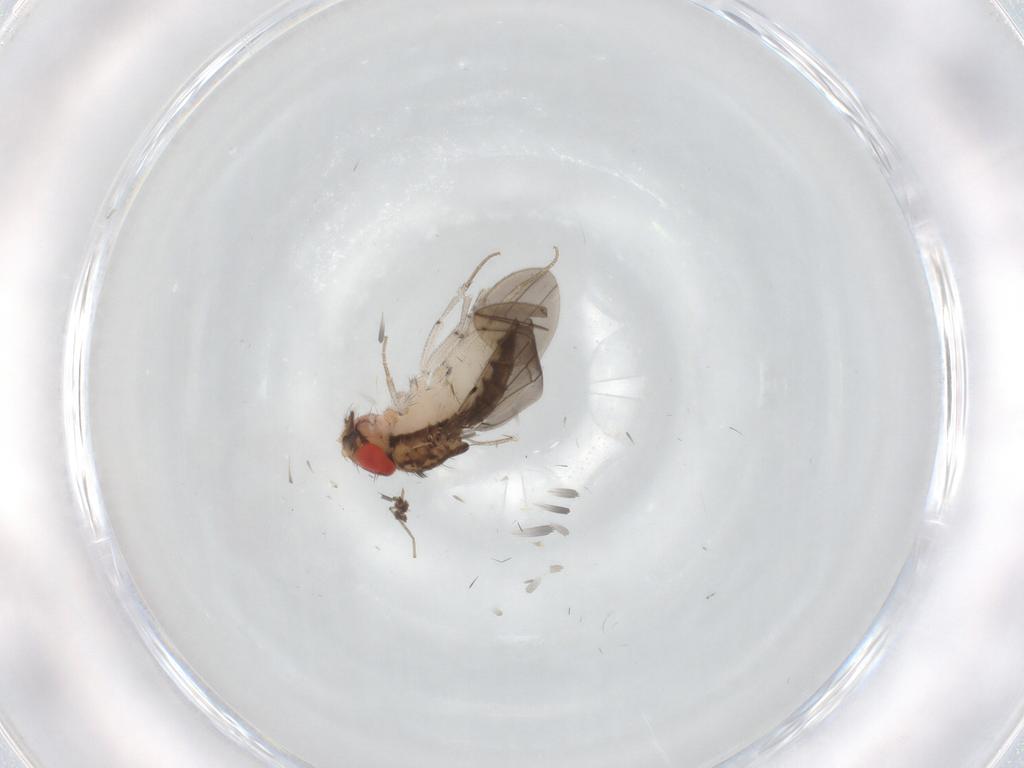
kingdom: Animalia
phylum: Arthropoda
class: Insecta
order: Diptera
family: Drosophilidae
